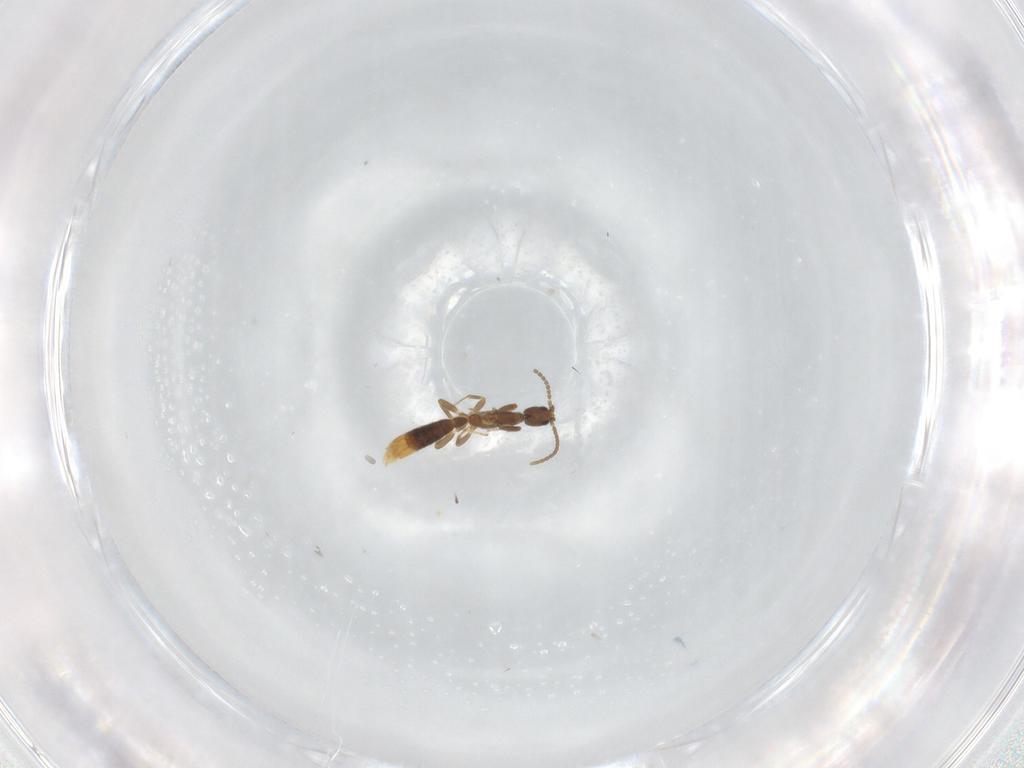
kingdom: Animalia
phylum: Arthropoda
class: Insecta
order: Hymenoptera
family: Formicidae
